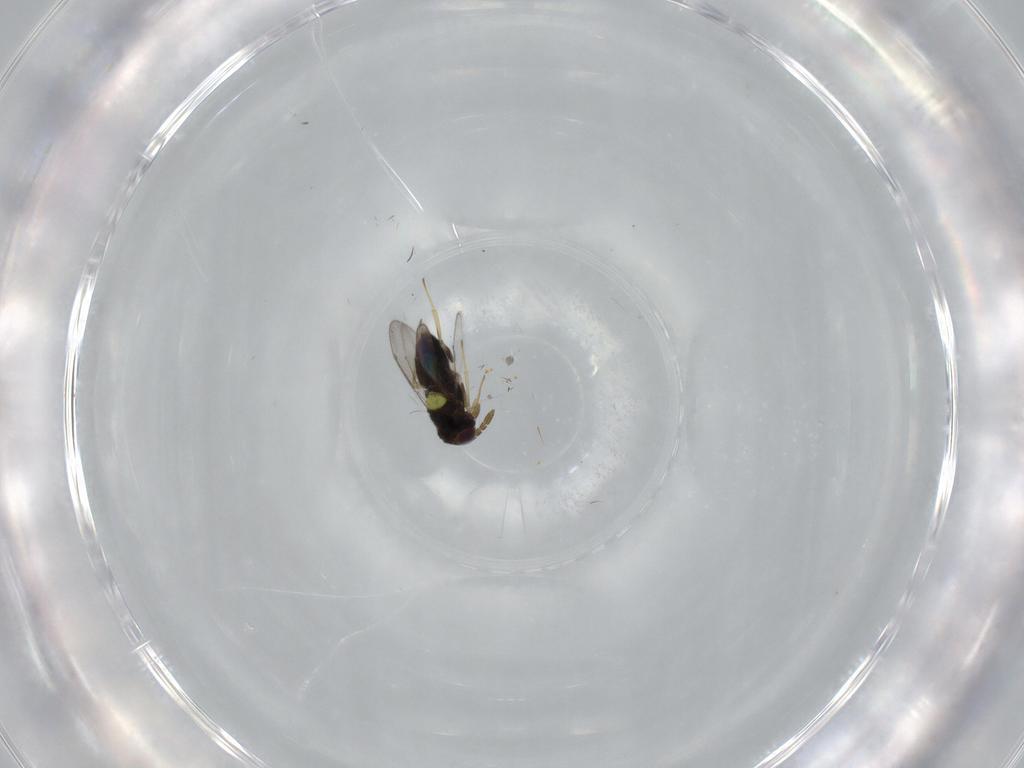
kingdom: Animalia
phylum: Arthropoda
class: Insecta
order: Hymenoptera
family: Aphelinidae
